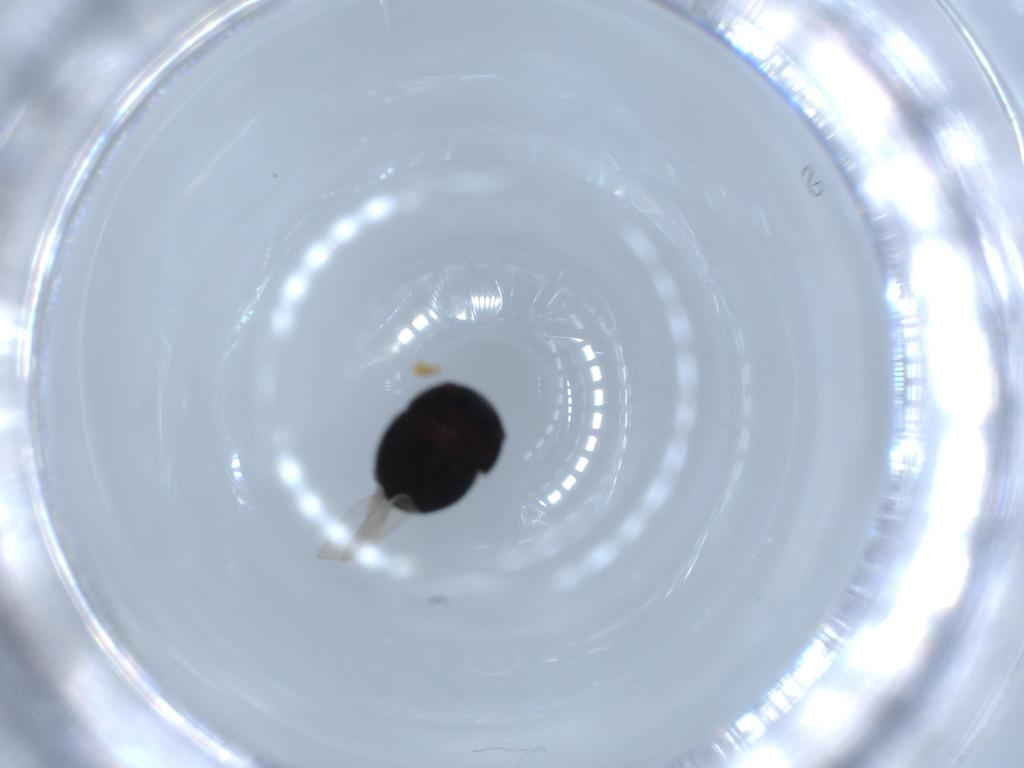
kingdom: Animalia
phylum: Arthropoda
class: Insecta
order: Coleoptera
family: Cybocephalidae
